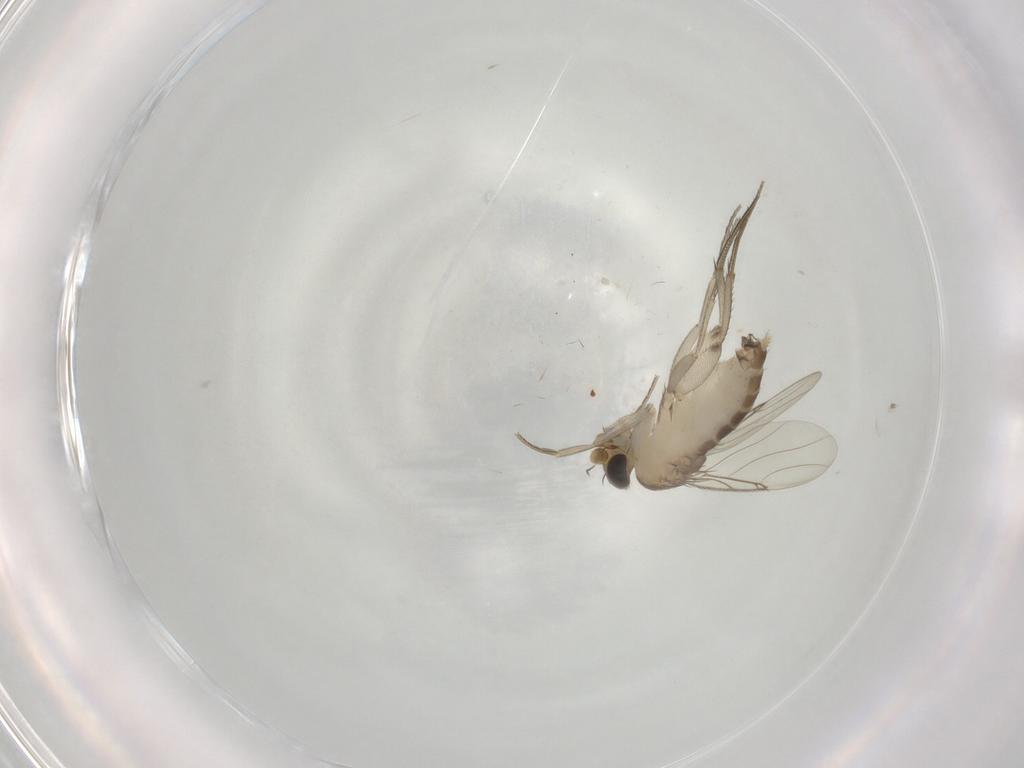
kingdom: Animalia
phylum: Arthropoda
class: Insecta
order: Diptera
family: Phoridae
